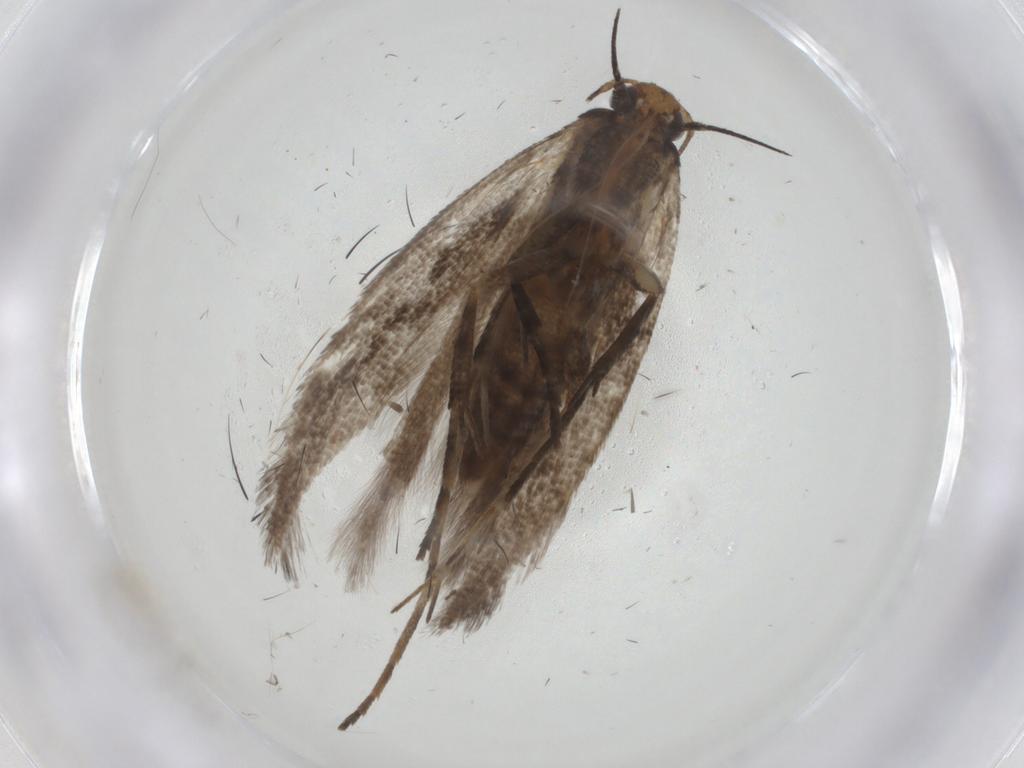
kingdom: Animalia
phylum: Arthropoda
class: Insecta
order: Lepidoptera
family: Gelechiidae
